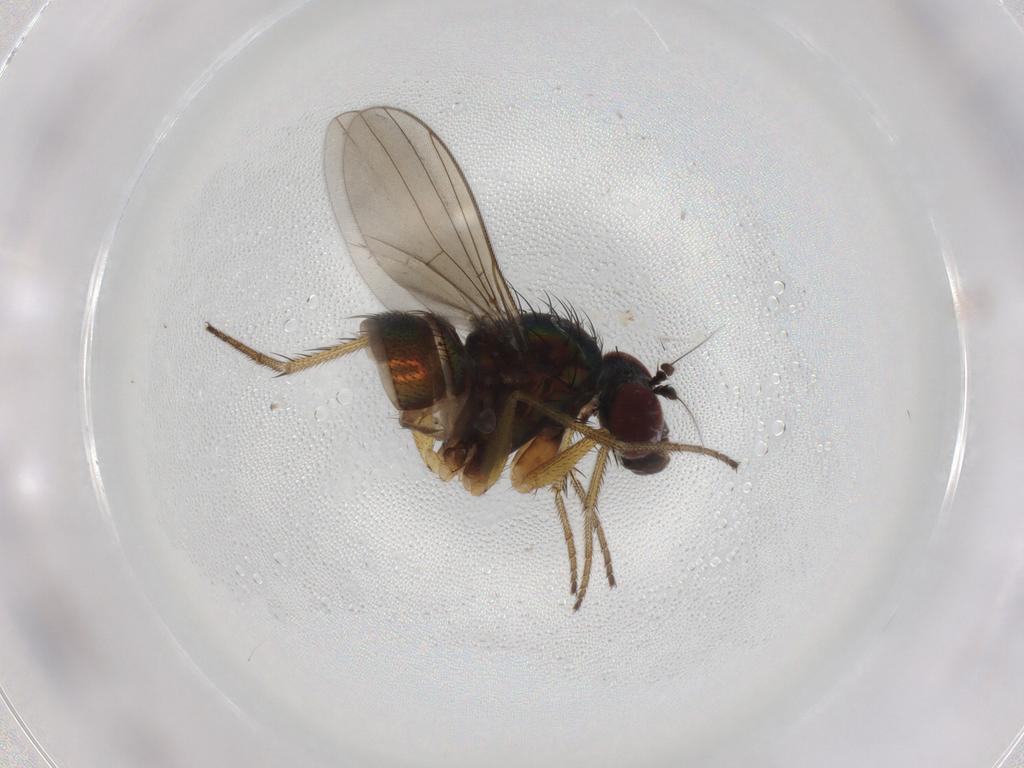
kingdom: Animalia
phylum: Arthropoda
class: Insecta
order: Diptera
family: Dolichopodidae
